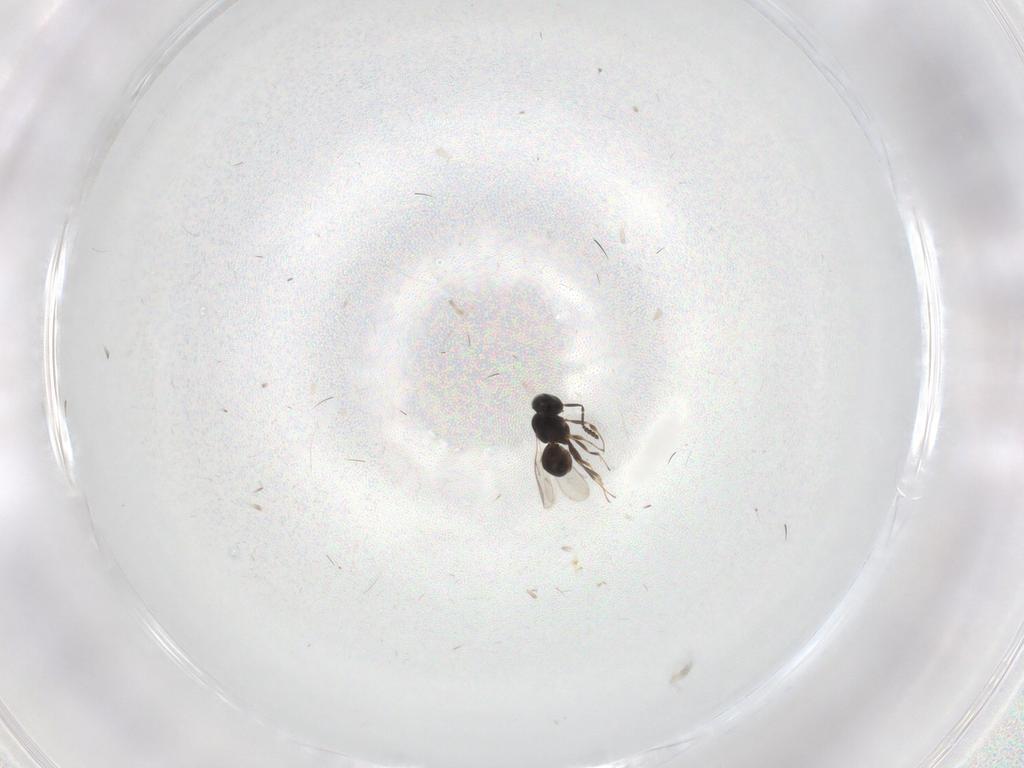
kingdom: Animalia
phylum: Arthropoda
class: Insecta
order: Hymenoptera
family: Scelionidae
